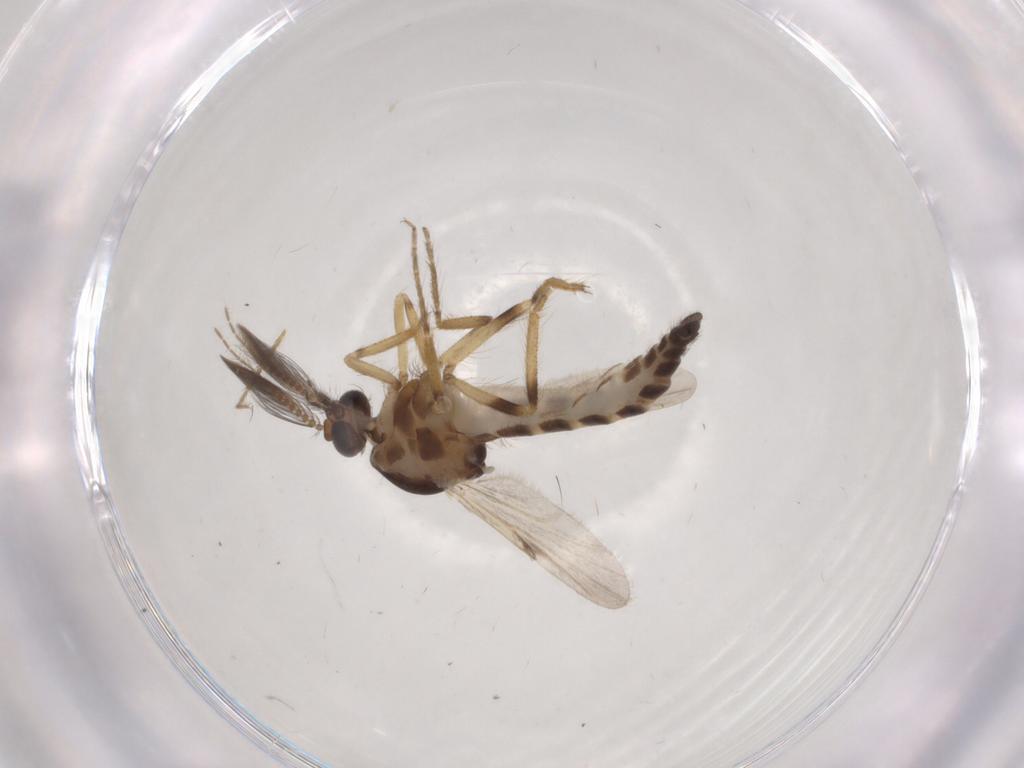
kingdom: Animalia
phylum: Arthropoda
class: Insecta
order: Diptera
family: Ceratopogonidae
